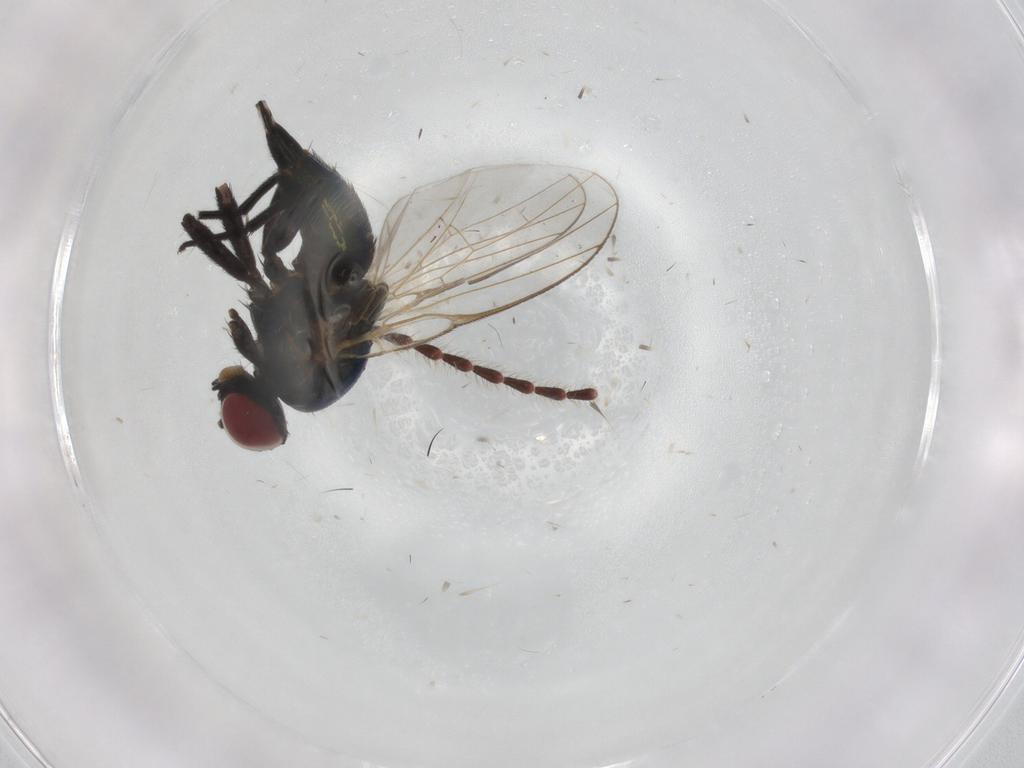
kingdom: Animalia
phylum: Arthropoda
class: Insecta
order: Diptera
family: Agromyzidae
